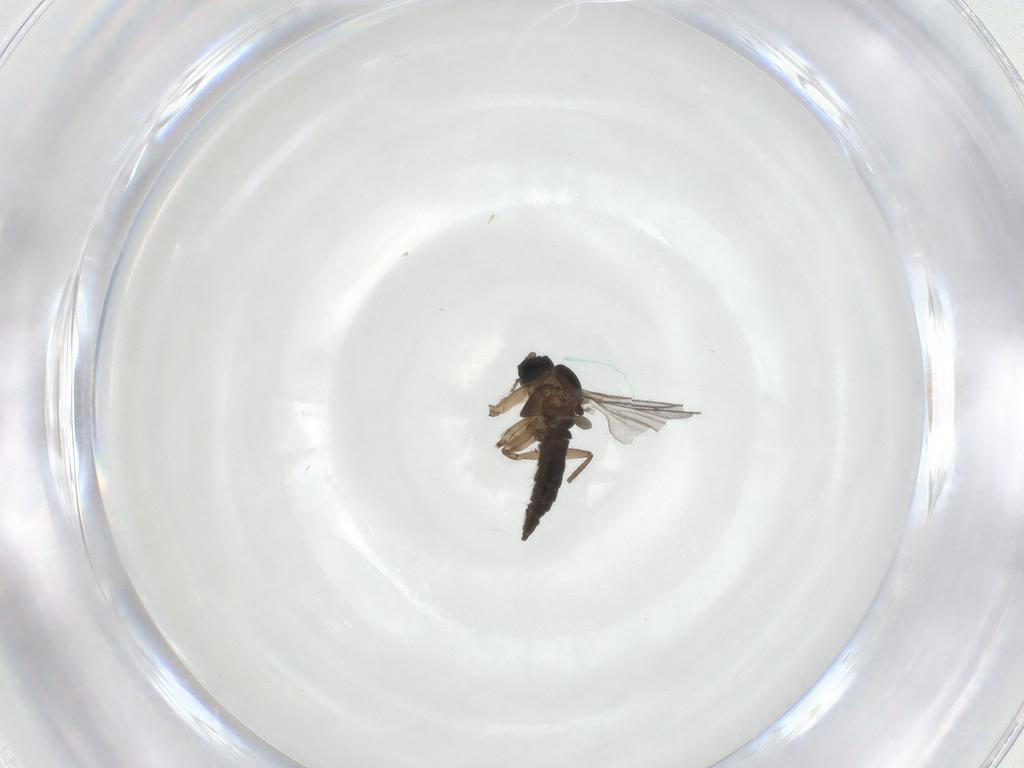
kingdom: Animalia
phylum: Arthropoda
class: Insecta
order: Diptera
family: Sciaridae
